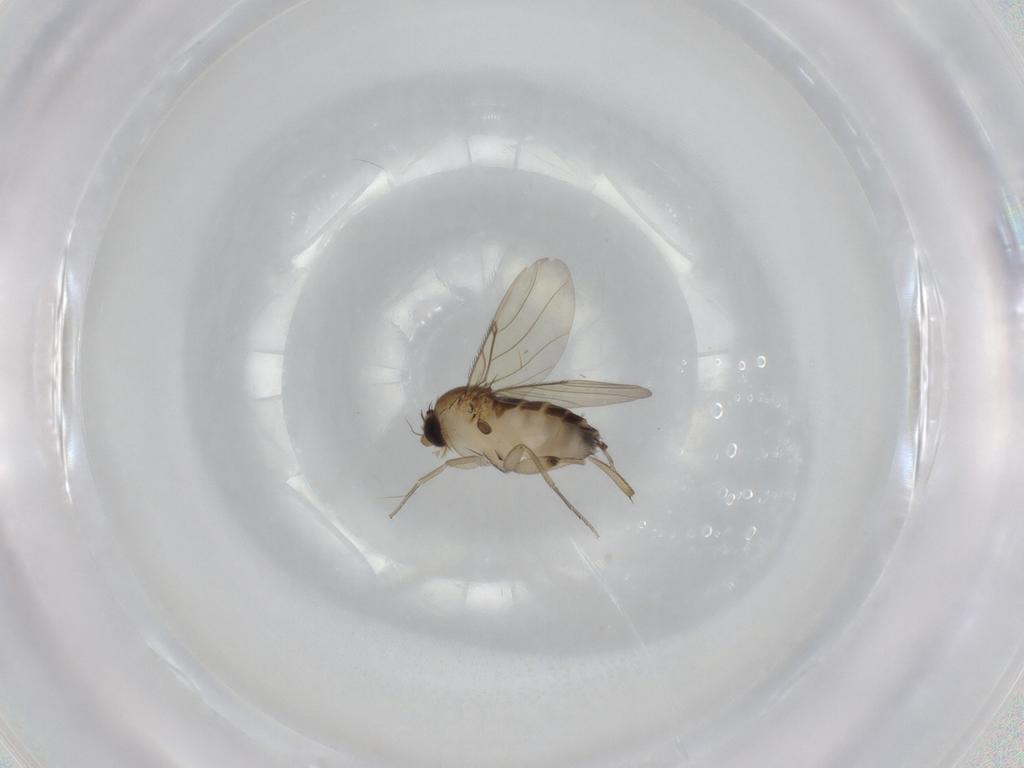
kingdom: Animalia
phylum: Arthropoda
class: Insecta
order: Diptera
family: Phoridae
